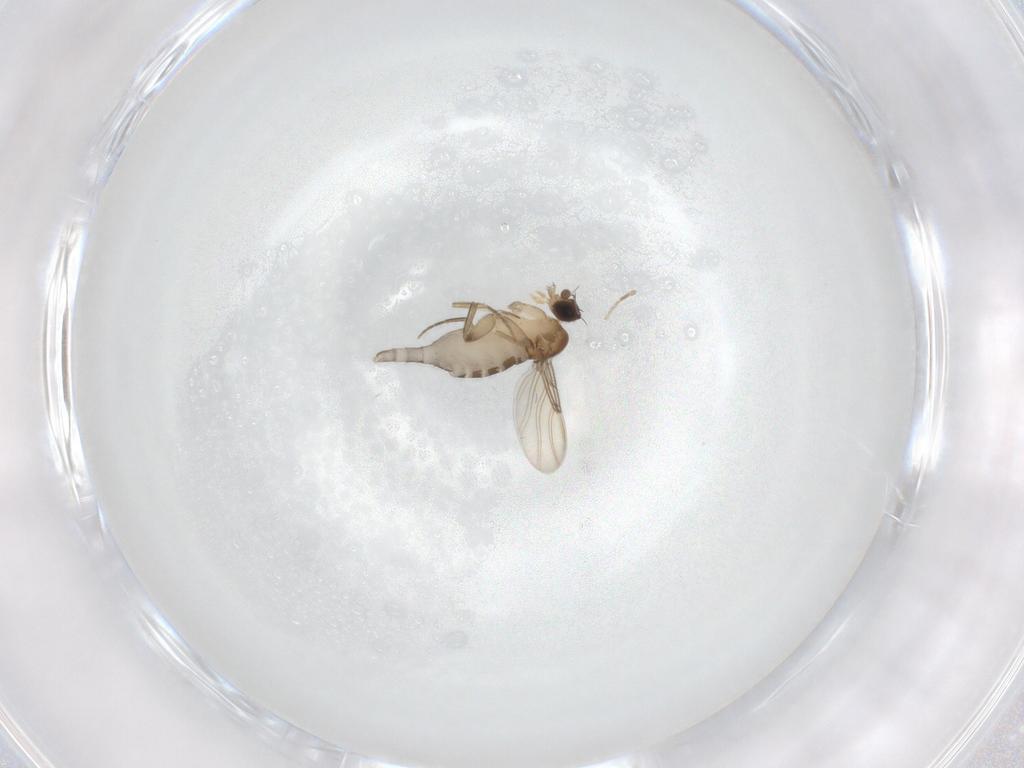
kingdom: Animalia
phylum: Arthropoda
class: Insecta
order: Diptera
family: Phoridae
